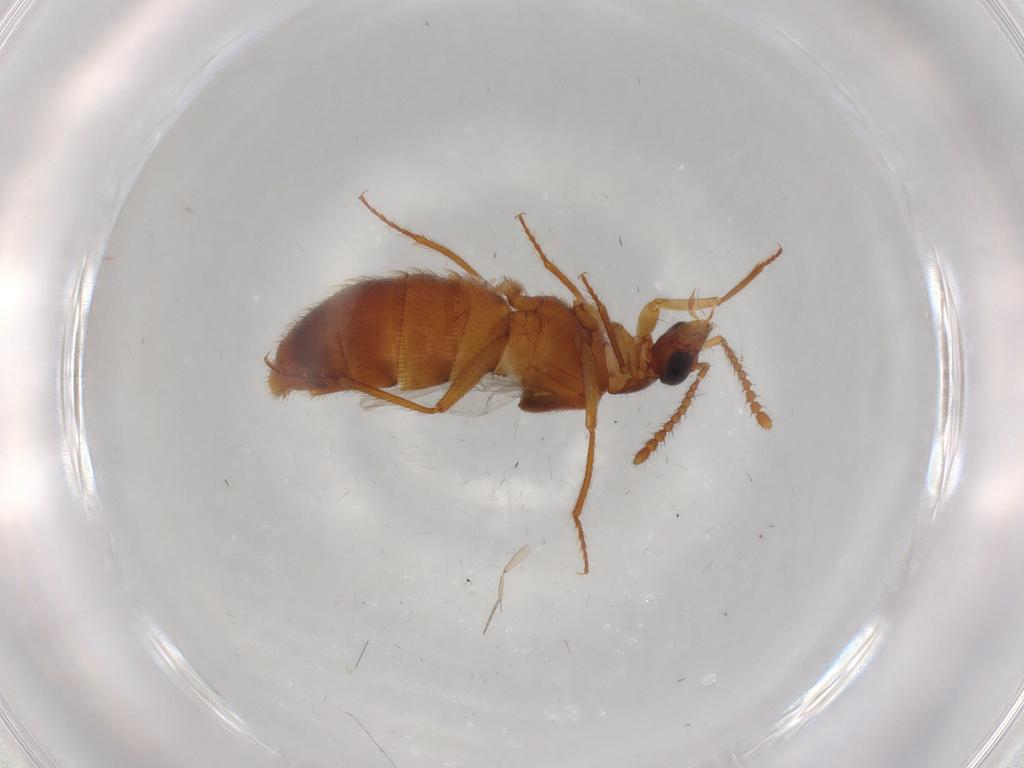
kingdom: Animalia
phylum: Arthropoda
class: Insecta
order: Coleoptera
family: Staphylinidae
